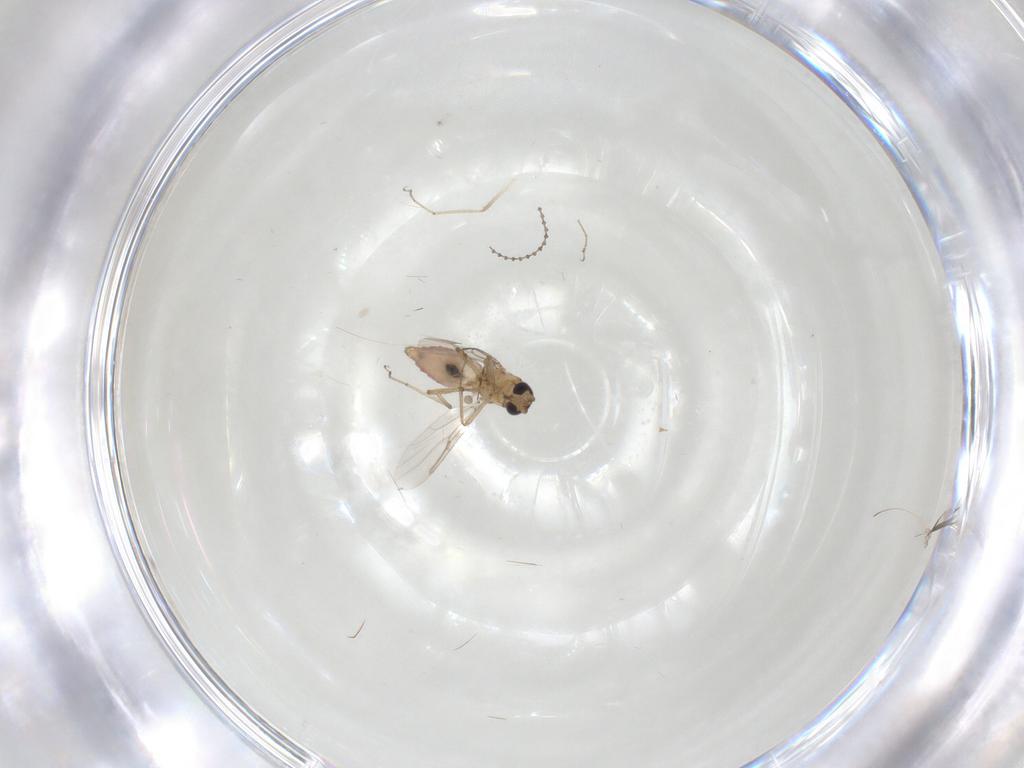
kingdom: Animalia
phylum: Arthropoda
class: Insecta
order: Diptera
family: Ceratopogonidae
